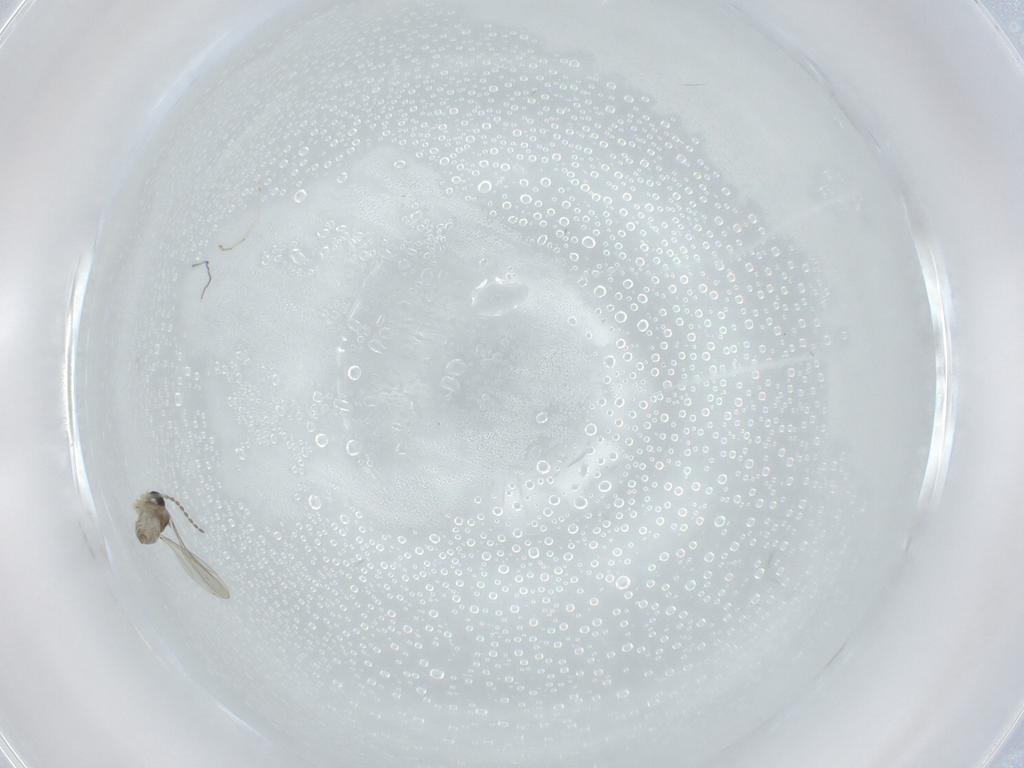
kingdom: Animalia
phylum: Arthropoda
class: Insecta
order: Diptera
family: Cecidomyiidae
